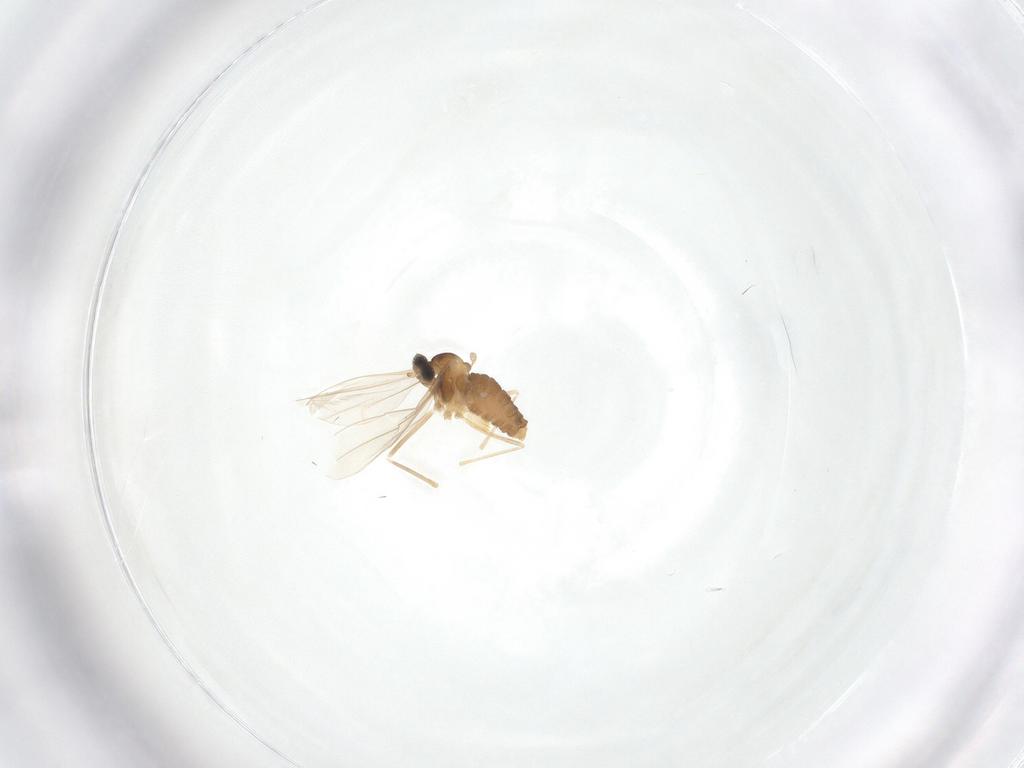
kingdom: Animalia
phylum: Arthropoda
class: Insecta
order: Diptera
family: Cecidomyiidae
